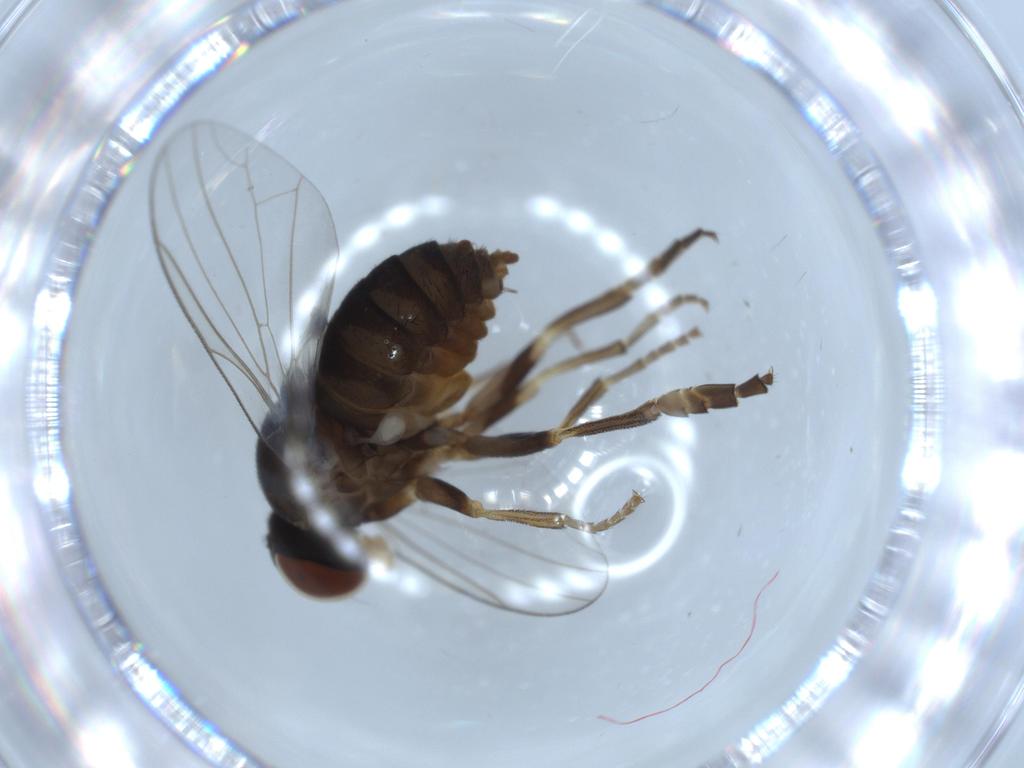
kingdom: Animalia
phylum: Arthropoda
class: Insecta
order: Diptera
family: Platypezidae
